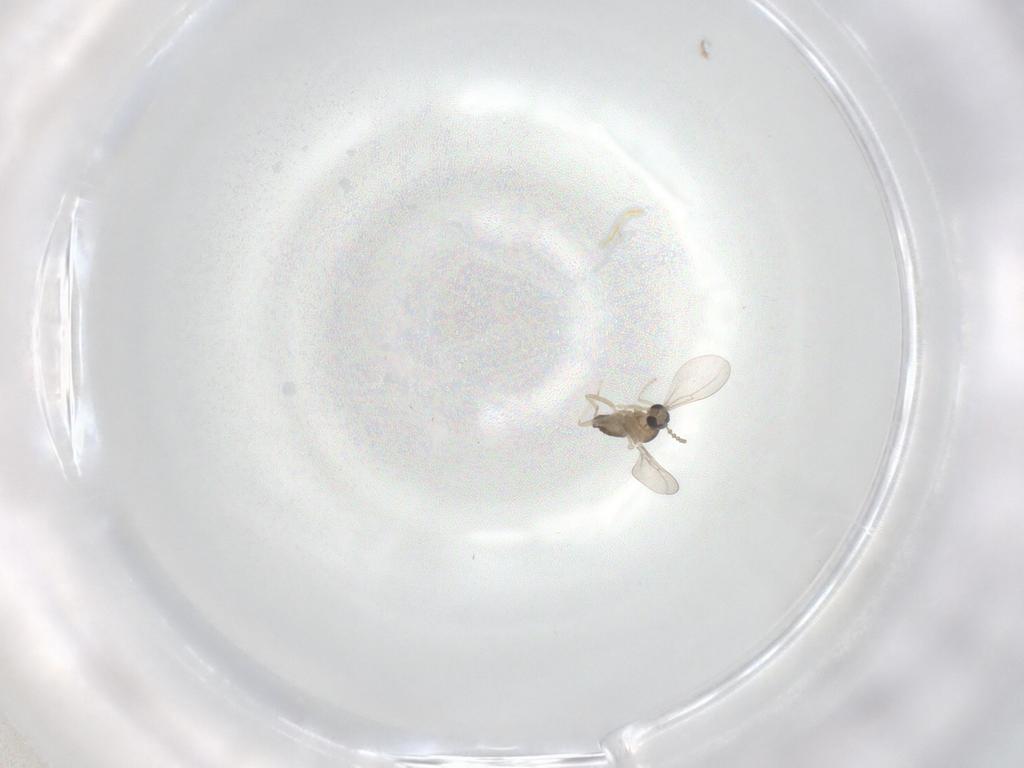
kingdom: Animalia
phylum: Arthropoda
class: Insecta
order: Diptera
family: Cecidomyiidae
